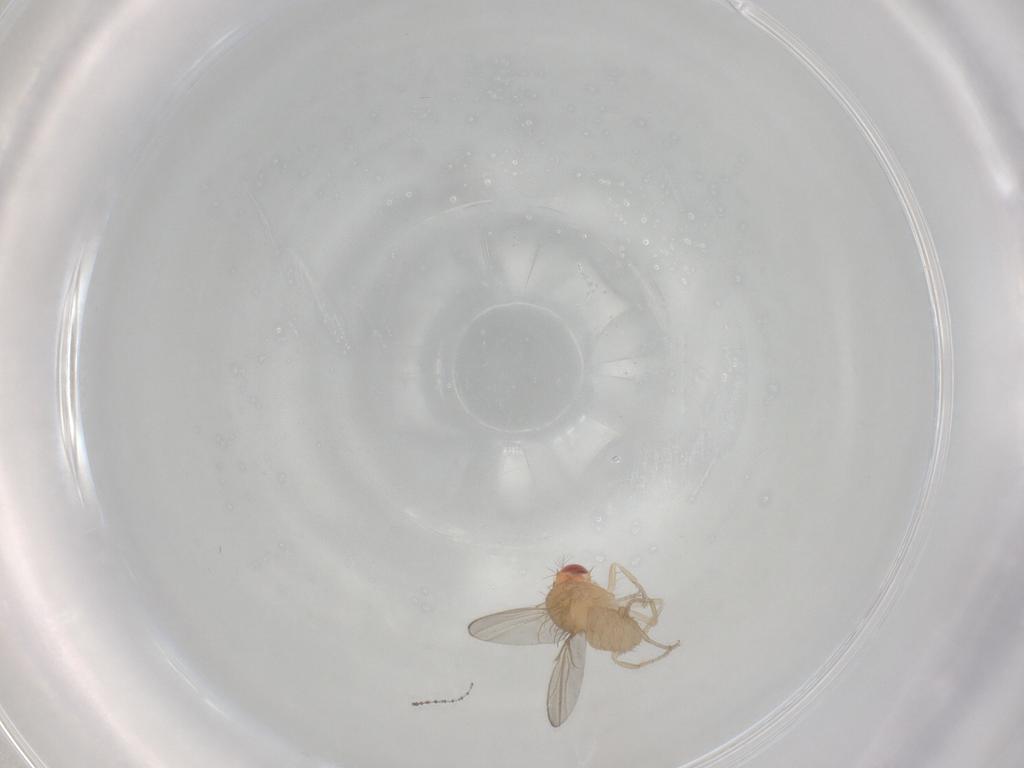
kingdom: Animalia
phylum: Arthropoda
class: Insecta
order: Diptera
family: Drosophilidae
